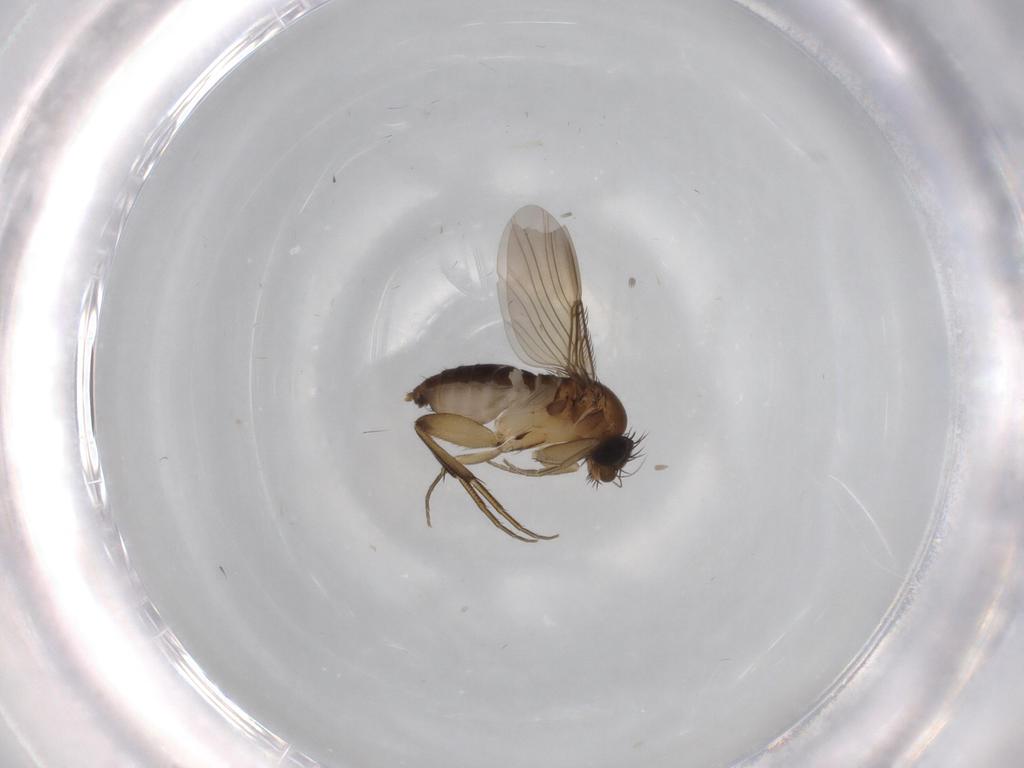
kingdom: Animalia
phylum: Arthropoda
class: Insecta
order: Diptera
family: Phoridae
